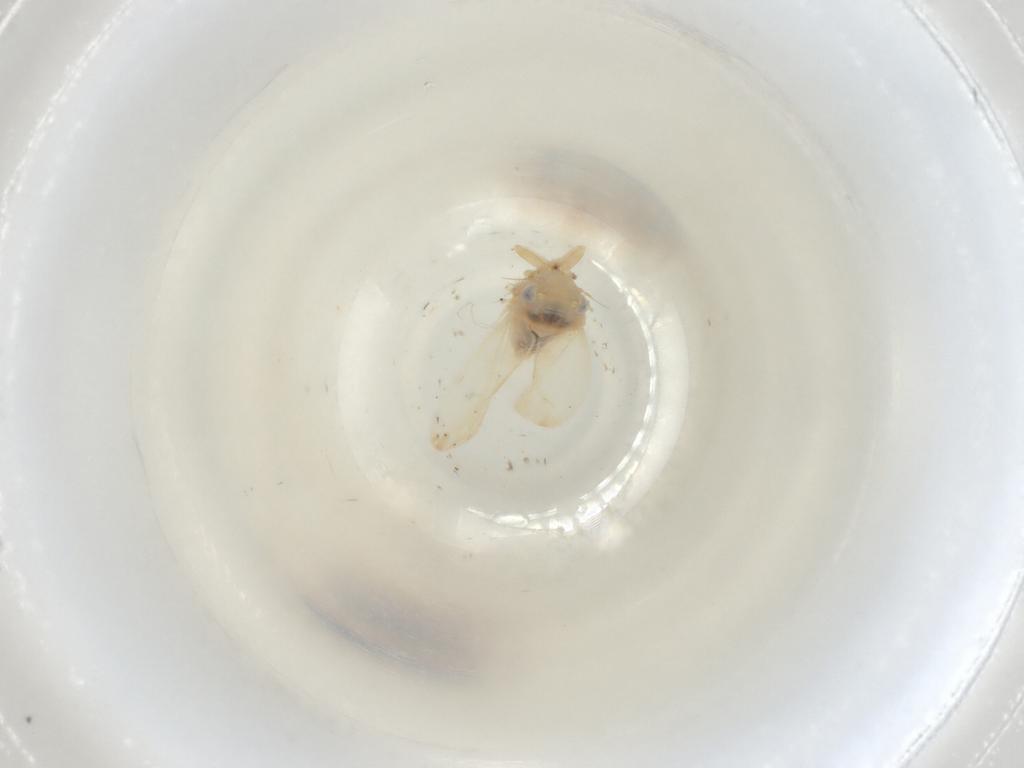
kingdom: Animalia
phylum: Arthropoda
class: Insecta
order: Hemiptera
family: Cicadellidae
